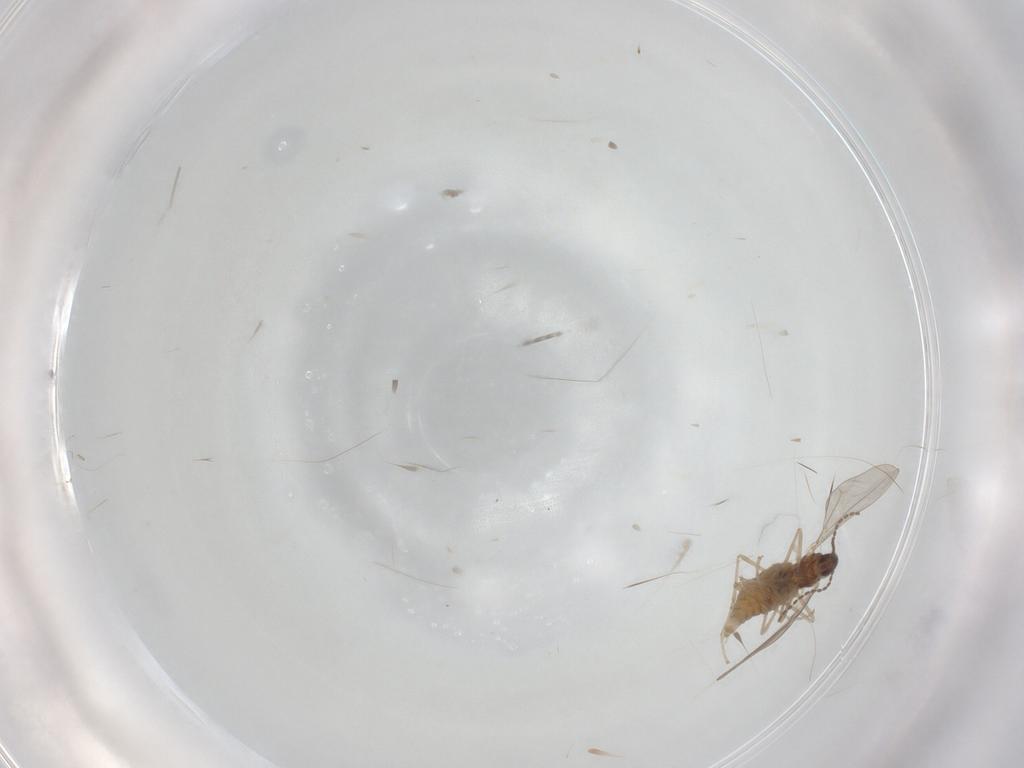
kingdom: Animalia
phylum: Arthropoda
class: Insecta
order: Diptera
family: Cecidomyiidae
